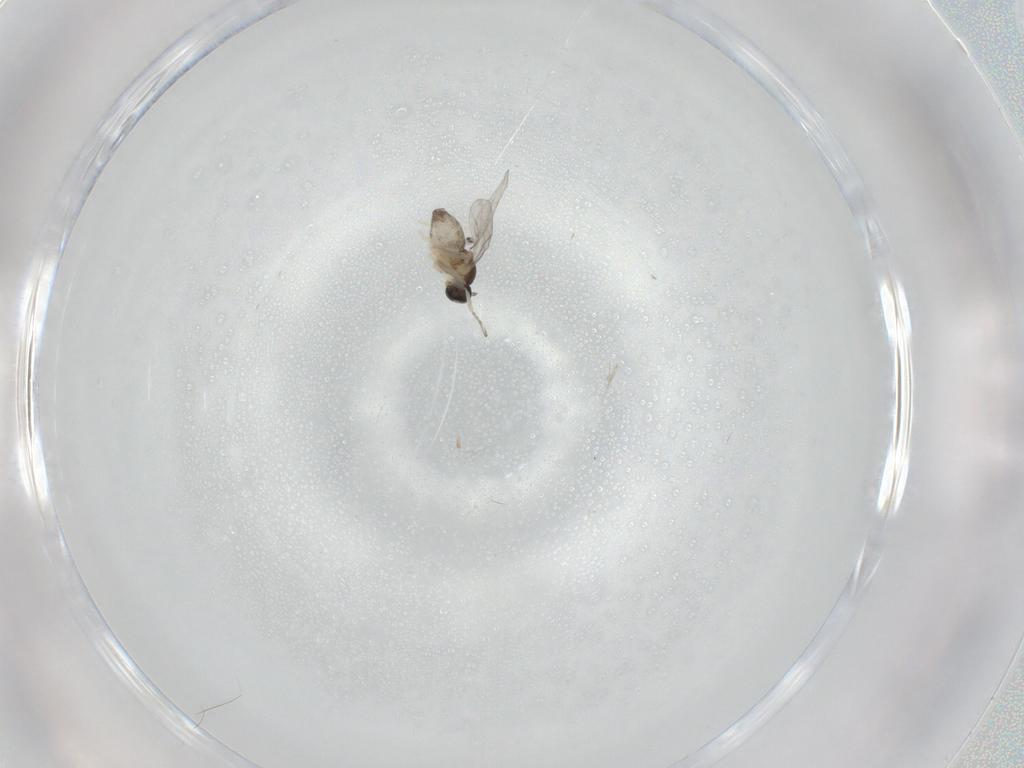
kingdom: Animalia
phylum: Arthropoda
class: Insecta
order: Diptera
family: Cecidomyiidae
